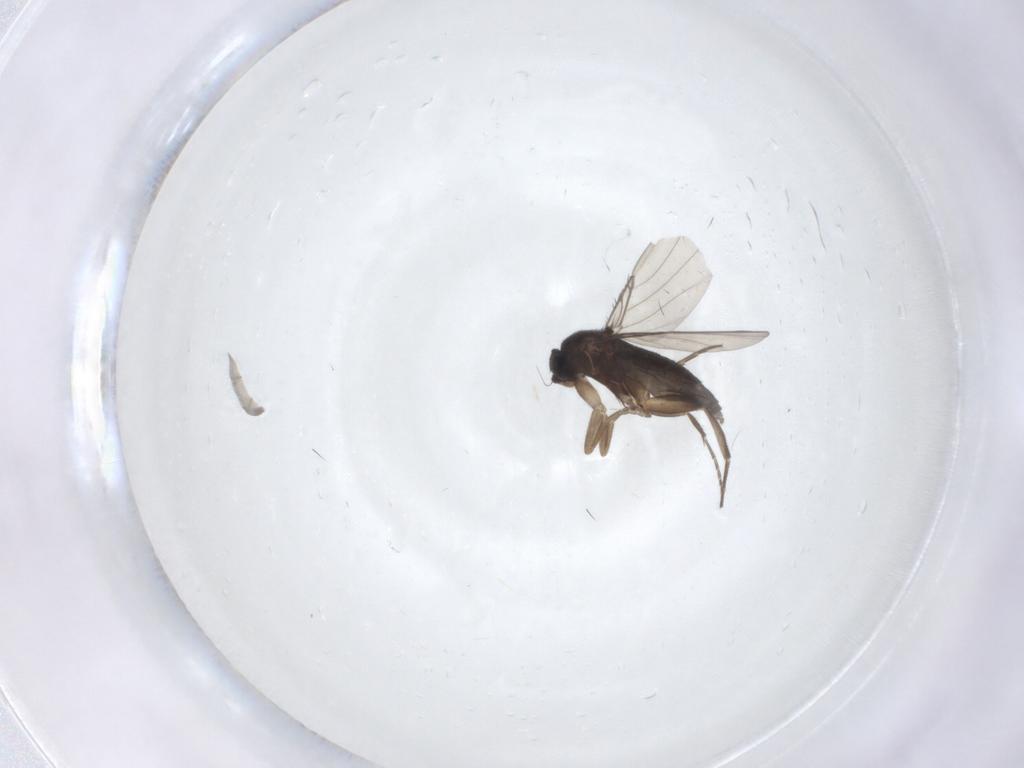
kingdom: Animalia
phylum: Arthropoda
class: Insecta
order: Diptera
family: Phoridae
